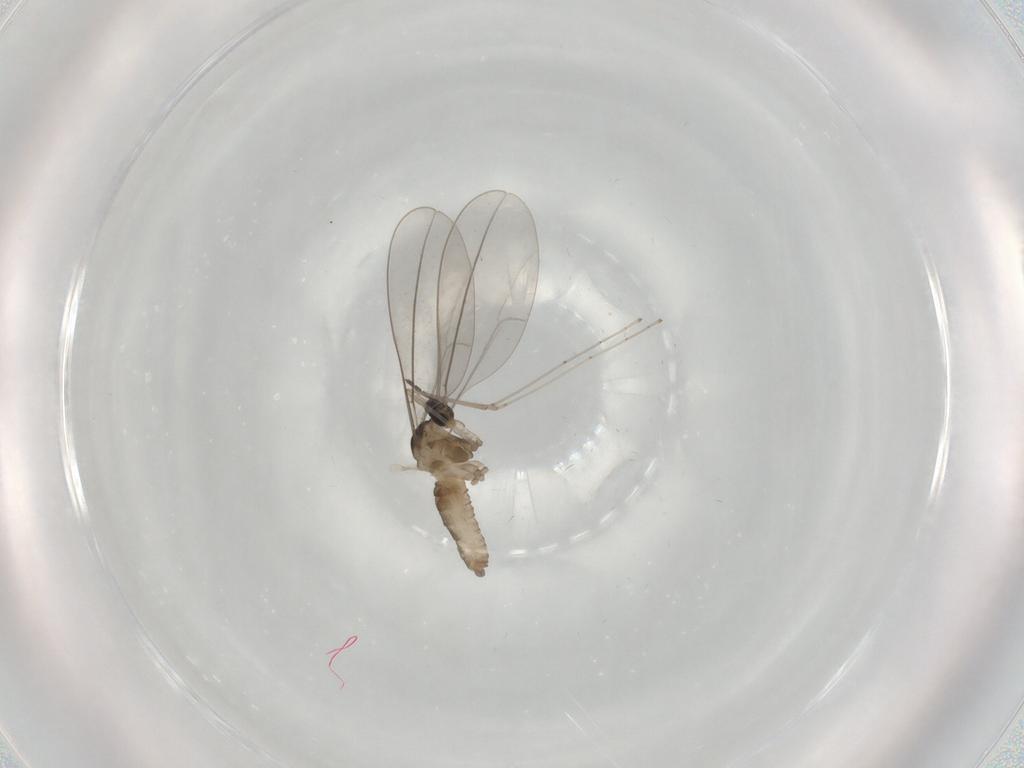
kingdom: Animalia
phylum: Arthropoda
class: Insecta
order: Diptera
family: Cecidomyiidae
